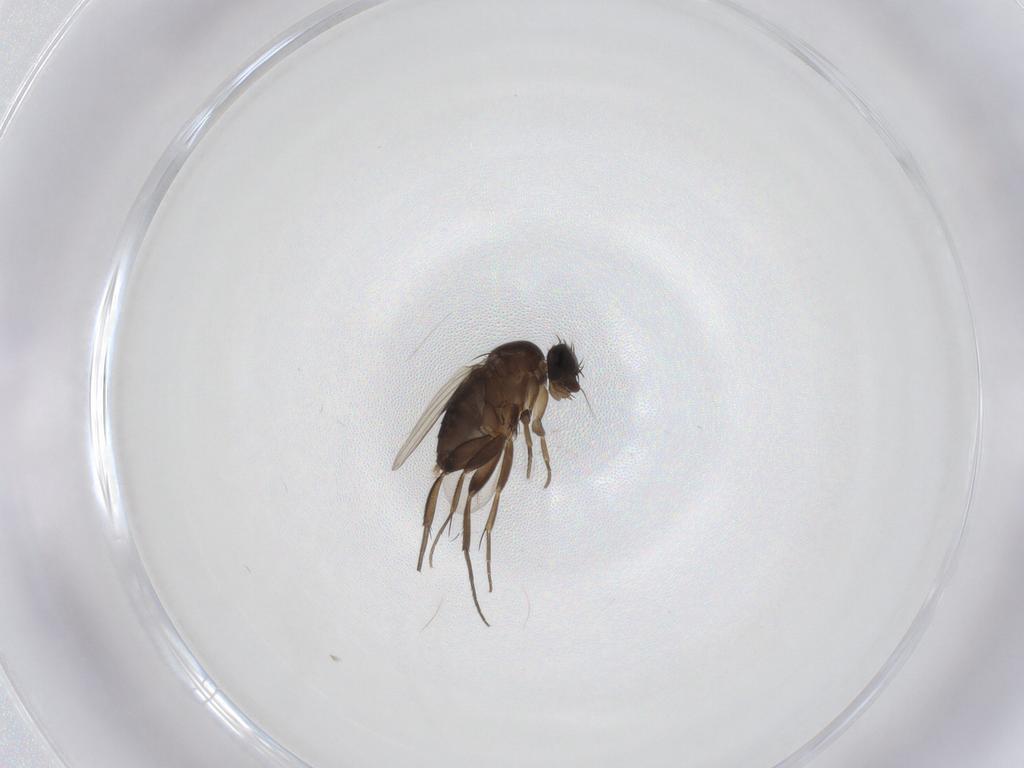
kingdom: Animalia
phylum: Arthropoda
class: Insecta
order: Diptera
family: Phoridae
